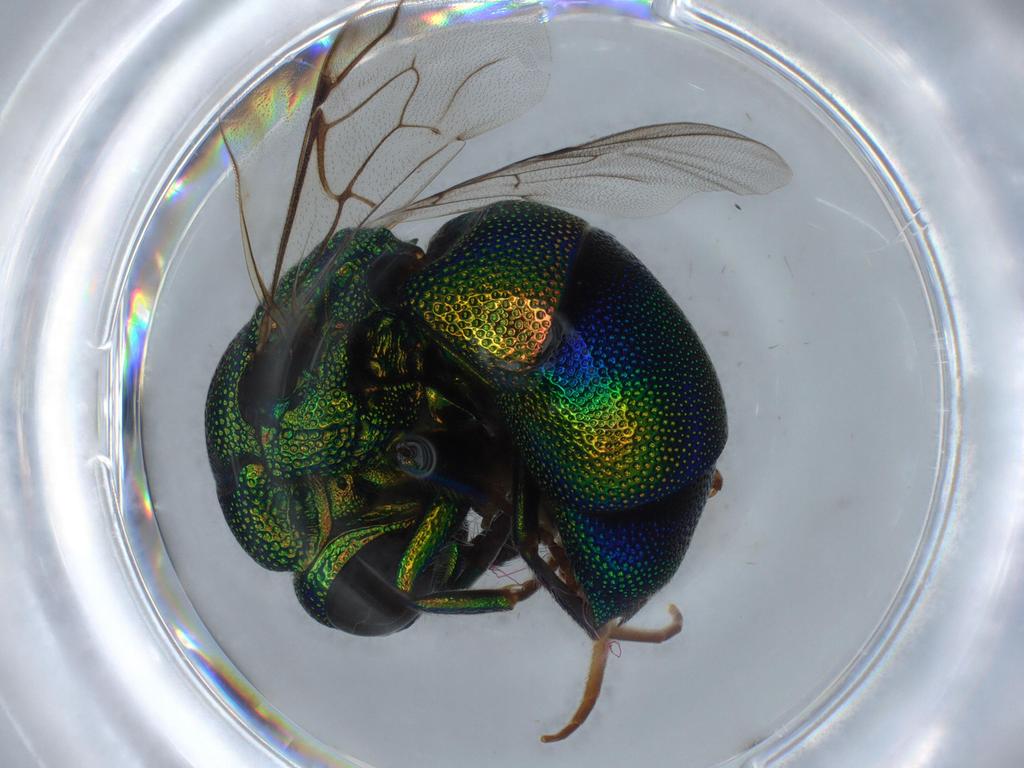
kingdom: Animalia
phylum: Arthropoda
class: Insecta
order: Hymenoptera
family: Chrysididae
